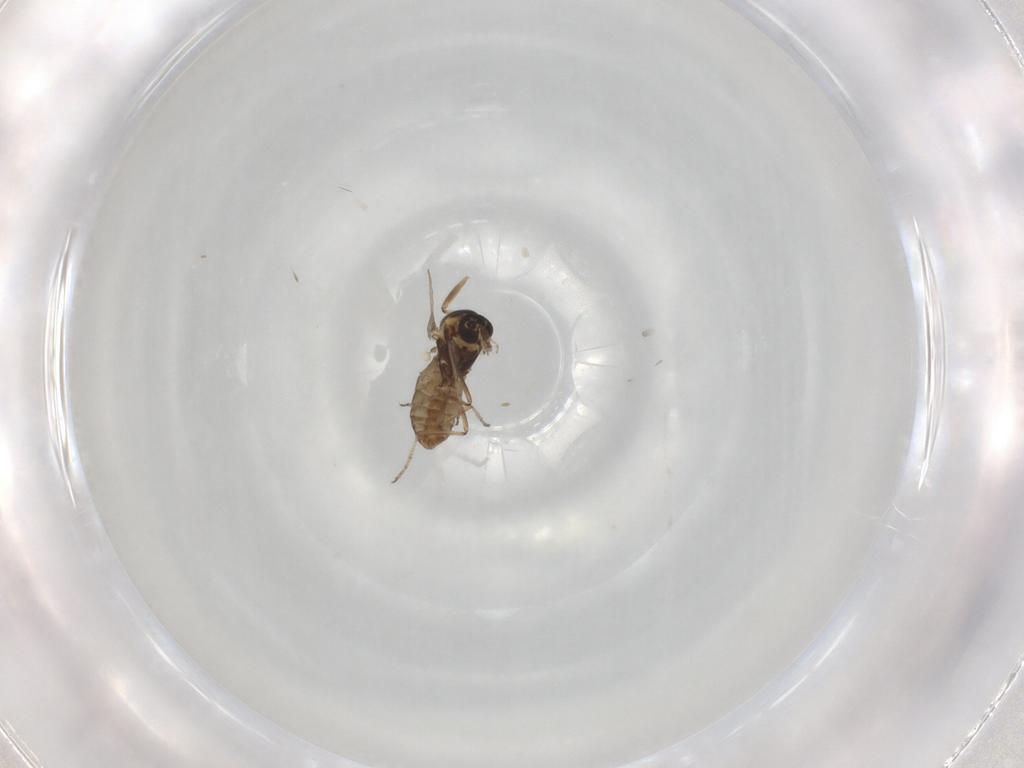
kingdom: Animalia
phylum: Arthropoda
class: Insecta
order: Diptera
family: Ceratopogonidae
